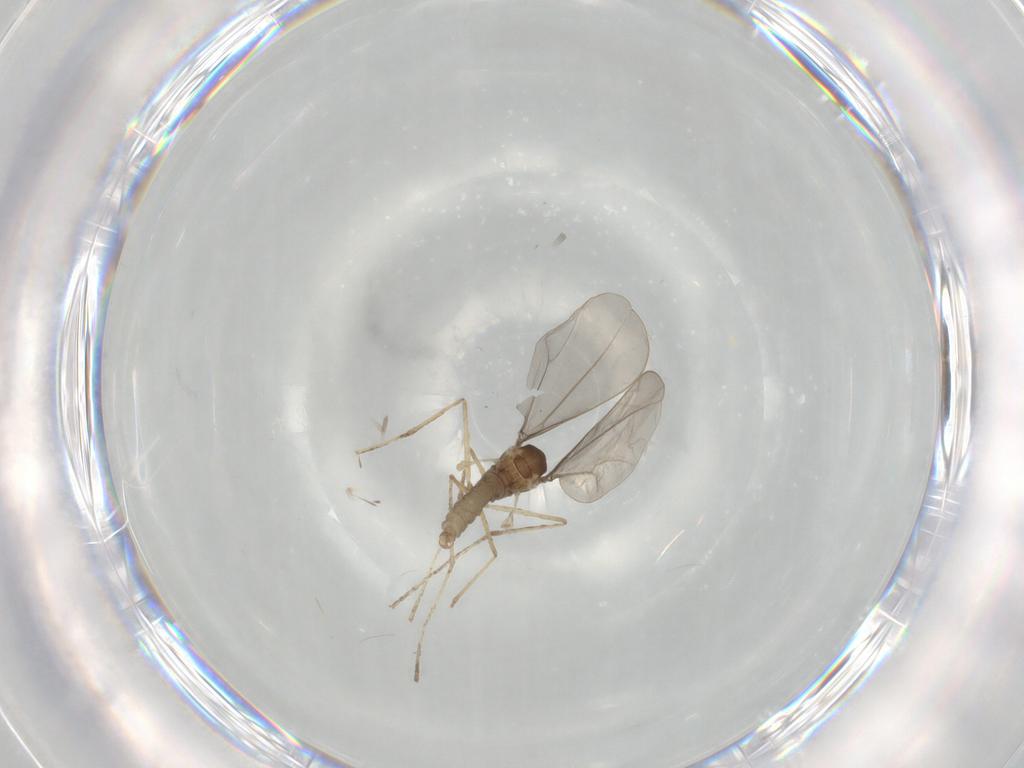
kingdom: Animalia
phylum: Arthropoda
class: Insecta
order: Diptera
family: Cecidomyiidae
